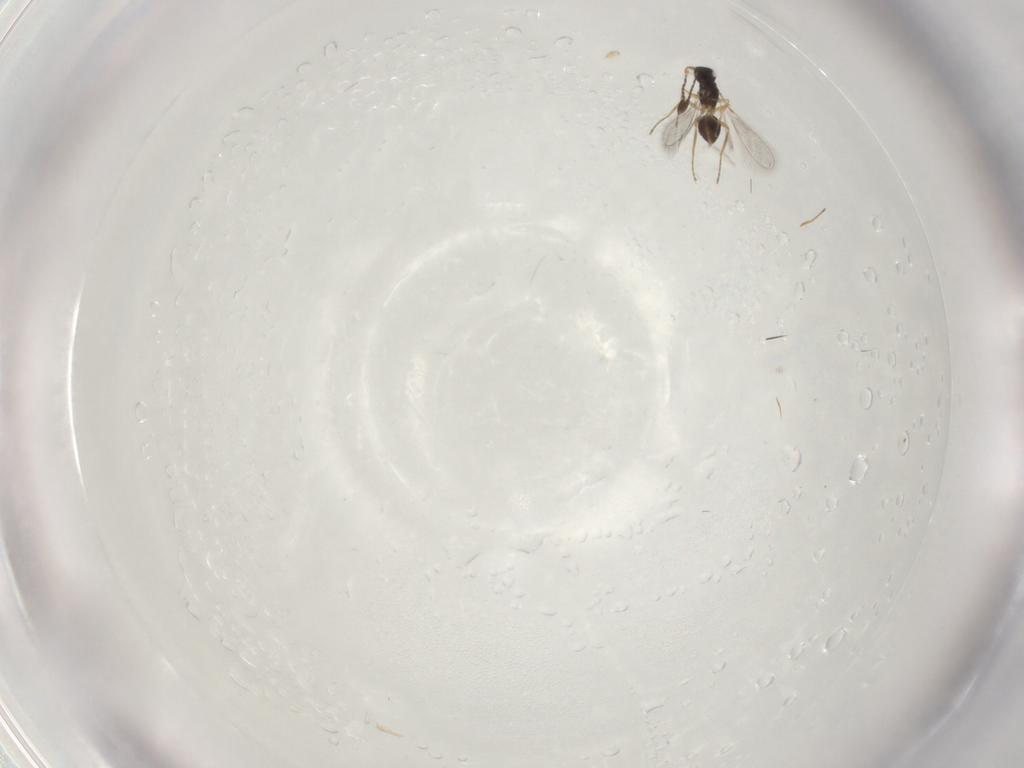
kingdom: Animalia
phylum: Arthropoda
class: Insecta
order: Hymenoptera
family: Mymaridae
